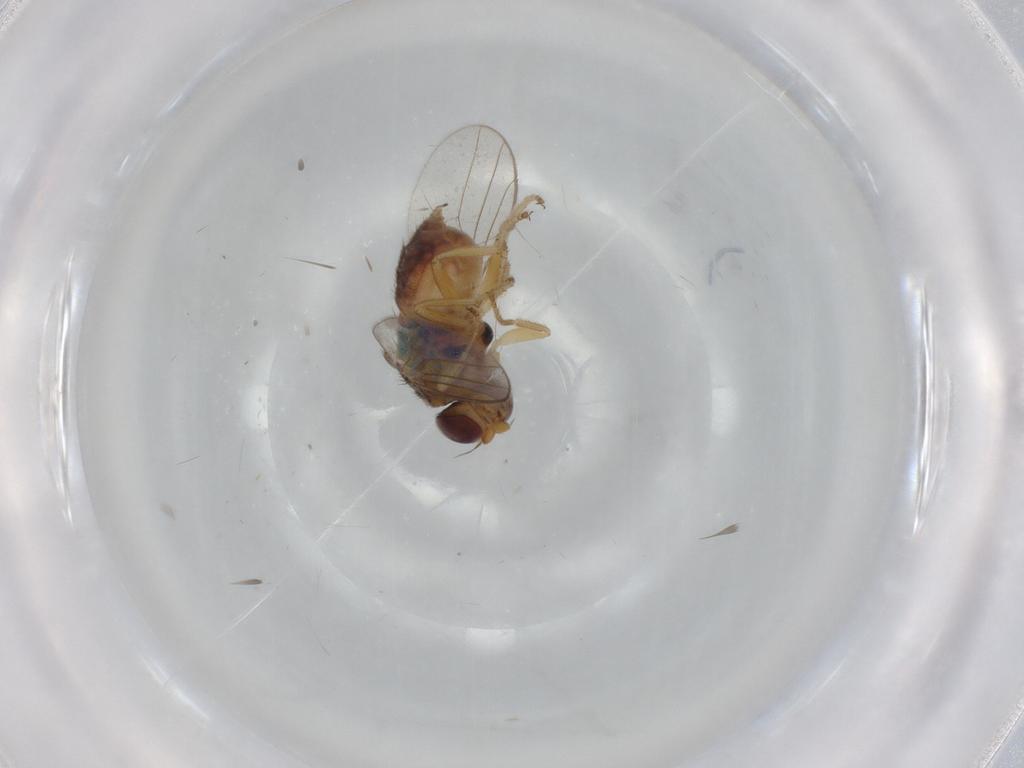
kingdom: Animalia
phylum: Arthropoda
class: Insecta
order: Diptera
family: Chloropidae
